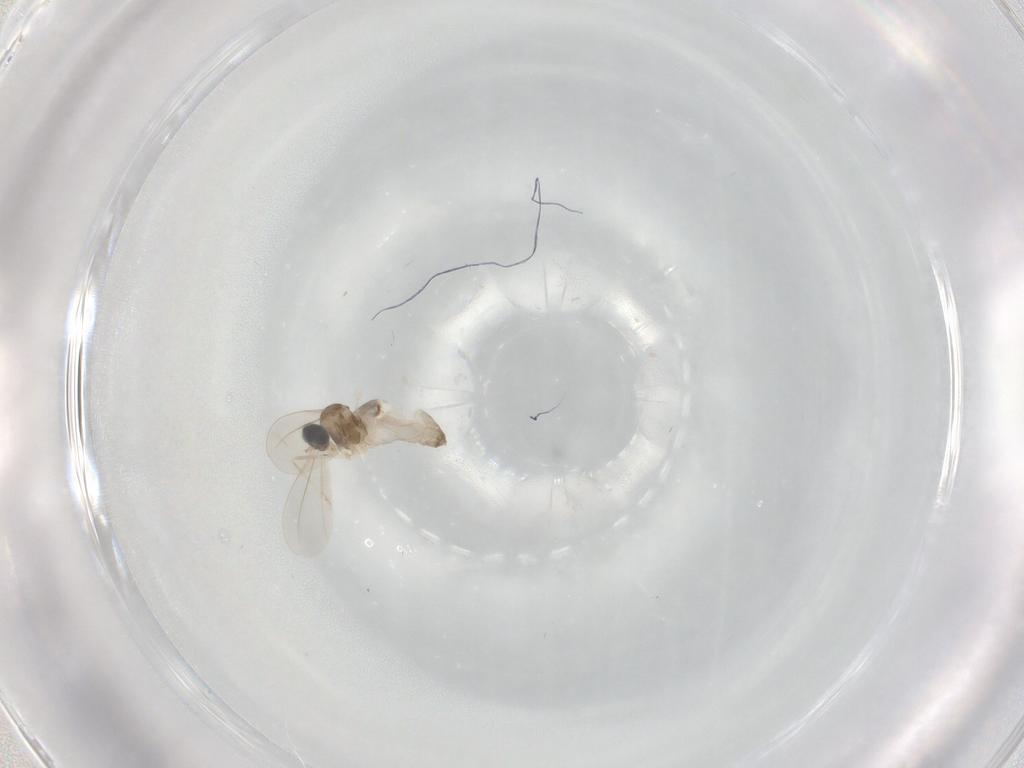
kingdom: Animalia
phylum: Arthropoda
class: Insecta
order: Diptera
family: Cecidomyiidae
